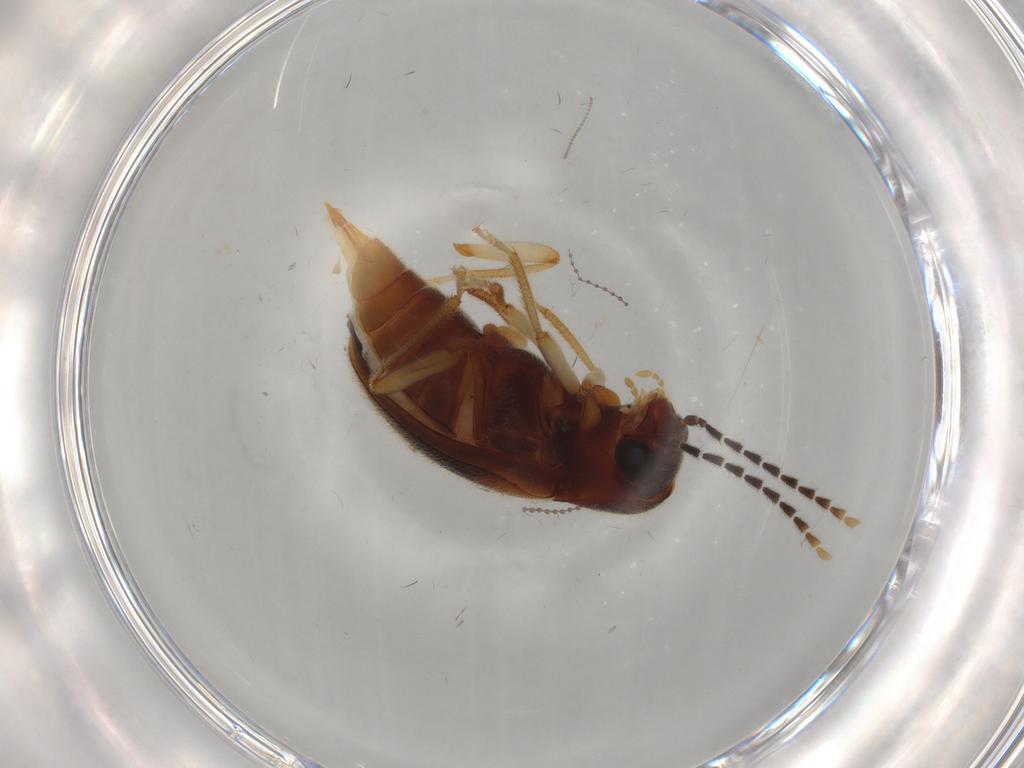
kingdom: Animalia
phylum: Arthropoda
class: Insecta
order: Coleoptera
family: Ptilodactylidae
